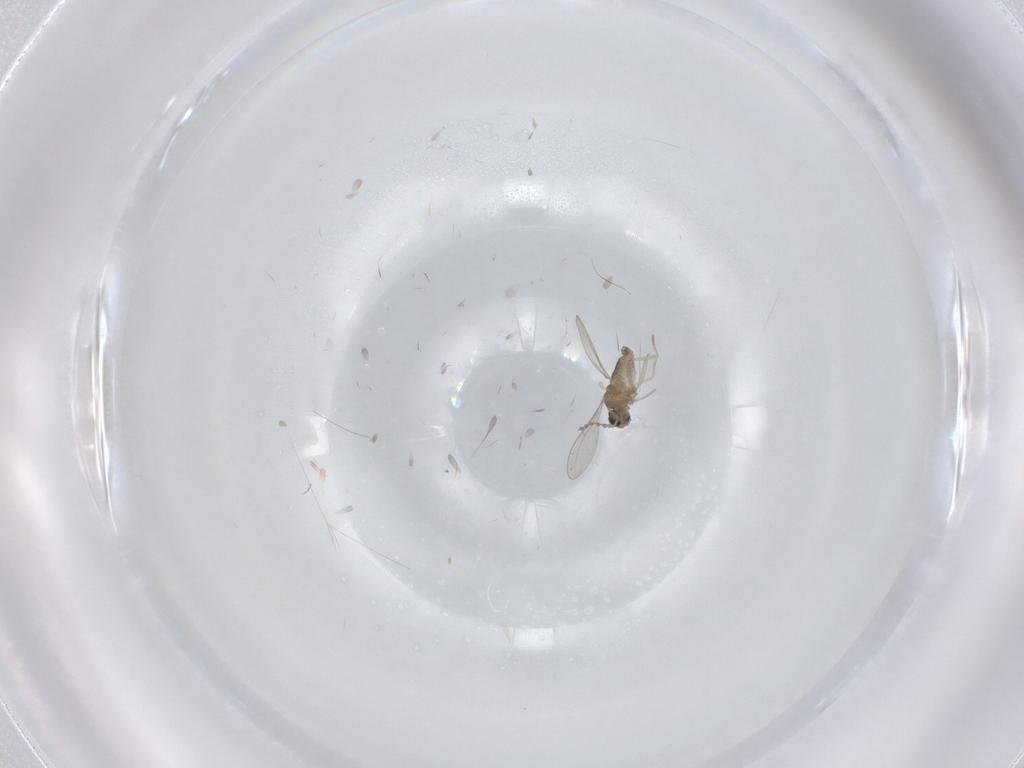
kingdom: Animalia
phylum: Arthropoda
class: Insecta
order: Diptera
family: Cecidomyiidae
